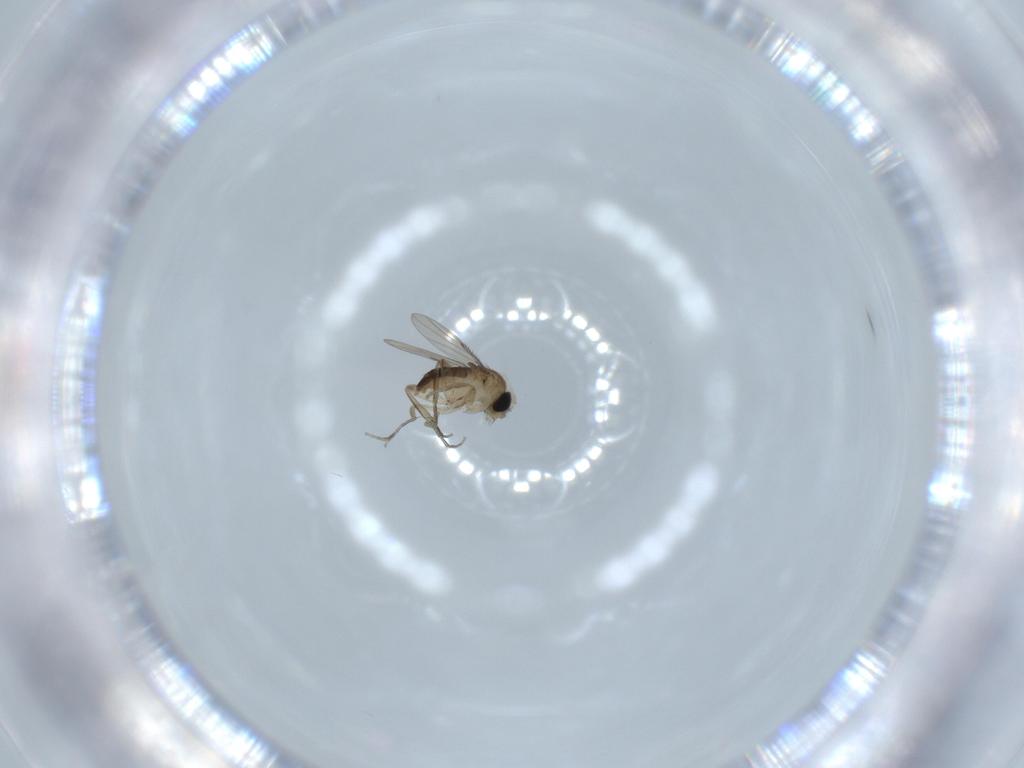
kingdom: Animalia
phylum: Arthropoda
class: Insecta
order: Diptera
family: Phoridae
